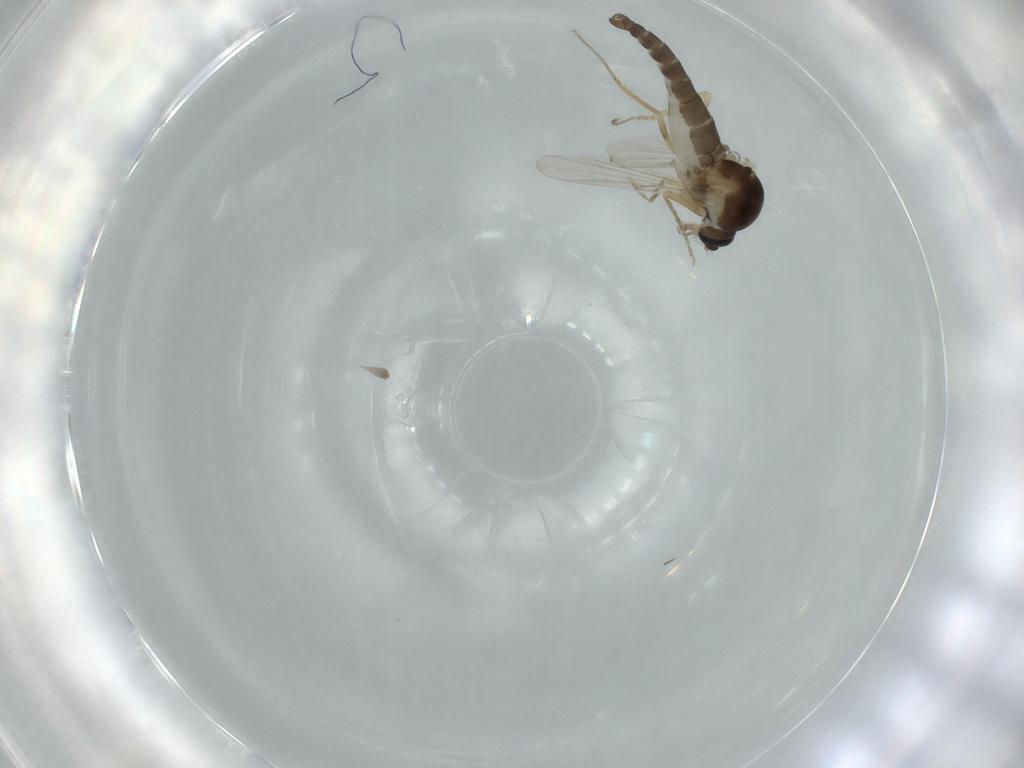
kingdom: Animalia
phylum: Arthropoda
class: Insecta
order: Diptera
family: Ceratopogonidae
